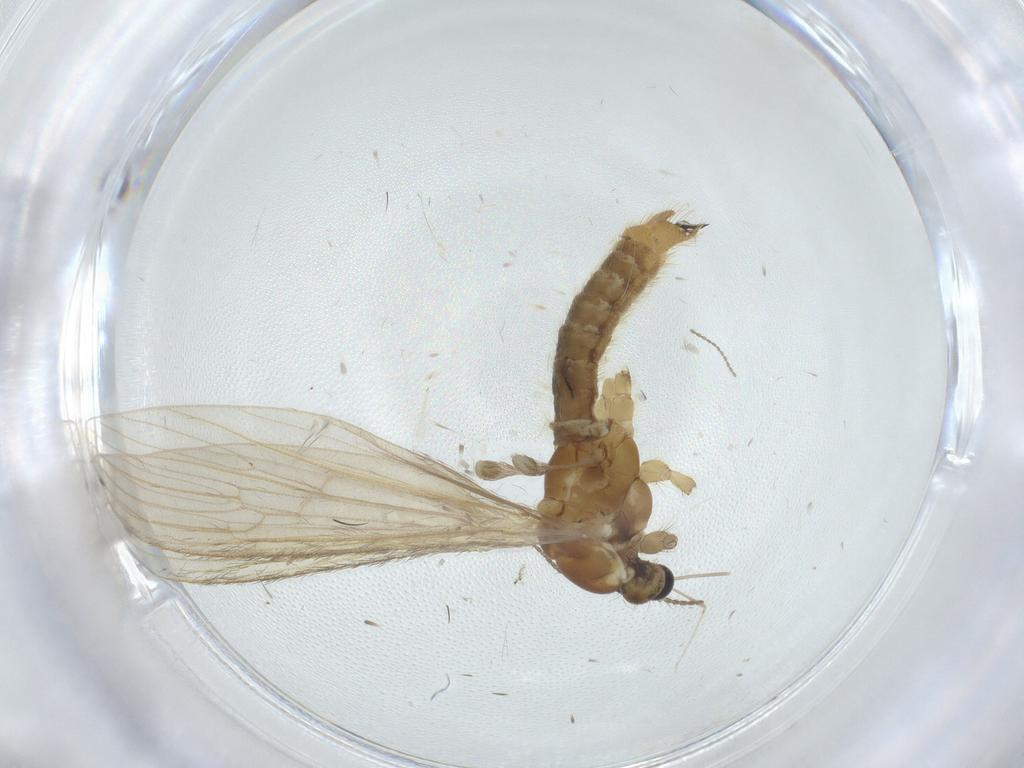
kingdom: Animalia
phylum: Arthropoda
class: Insecta
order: Diptera
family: Cecidomyiidae
